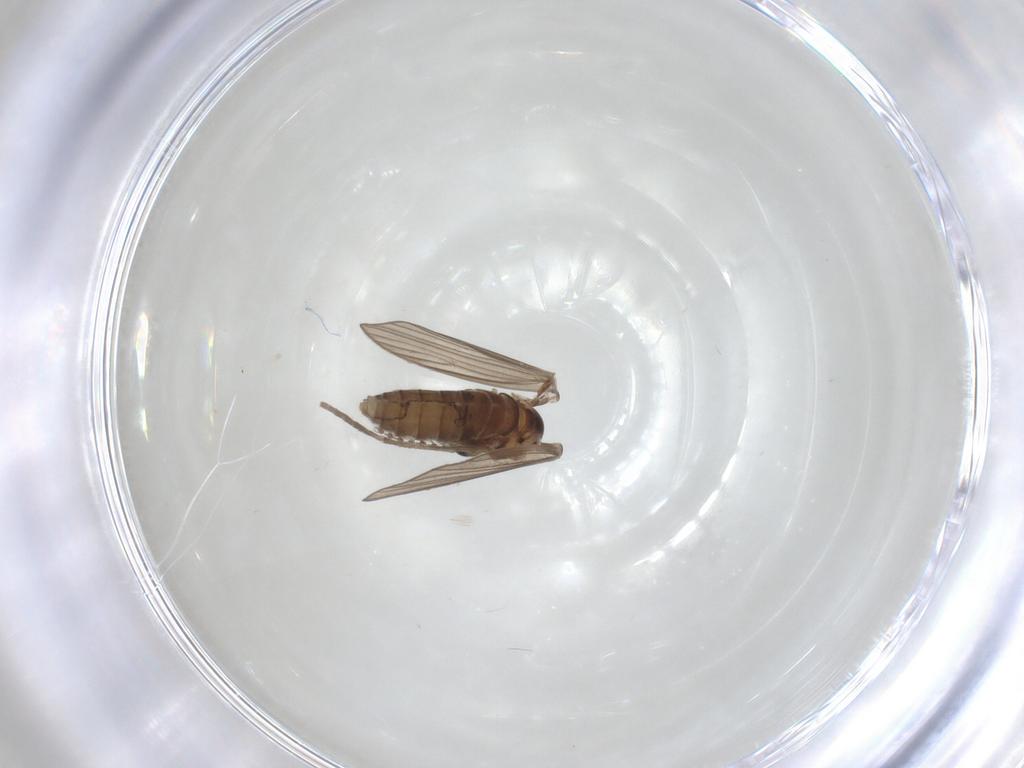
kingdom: Animalia
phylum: Arthropoda
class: Insecta
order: Diptera
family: Psychodidae
